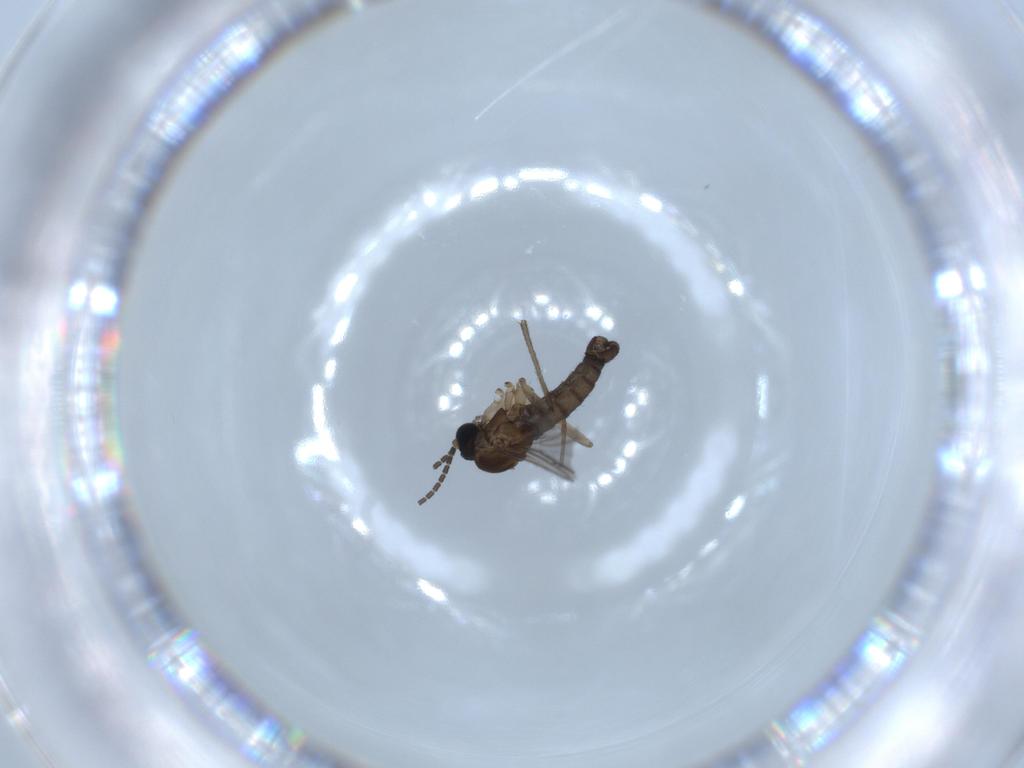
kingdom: Animalia
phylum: Arthropoda
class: Insecta
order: Diptera
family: Sciaridae
